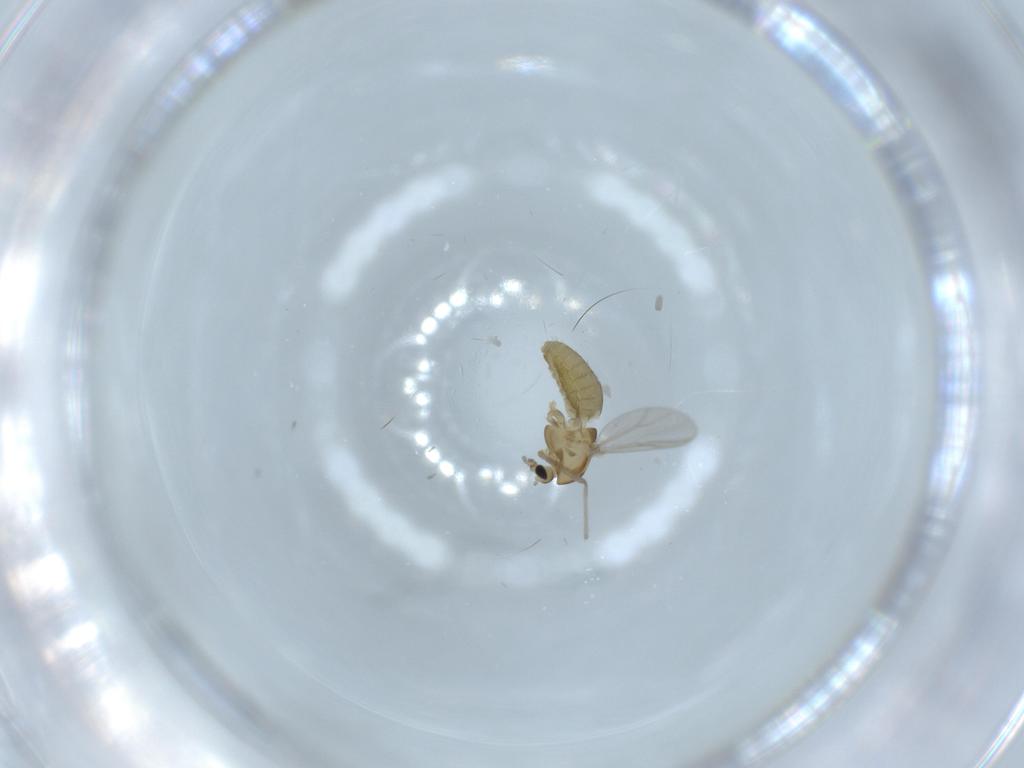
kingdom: Animalia
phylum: Arthropoda
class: Insecta
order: Diptera
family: Chironomidae
